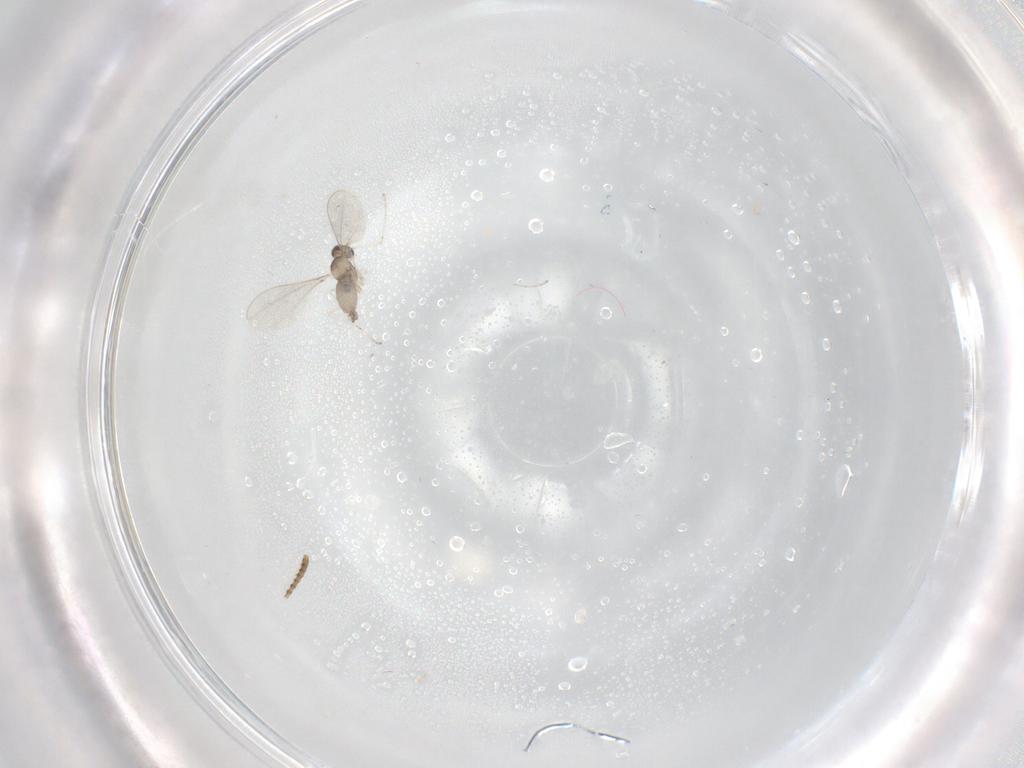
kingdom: Animalia
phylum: Arthropoda
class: Insecta
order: Diptera
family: Cecidomyiidae
